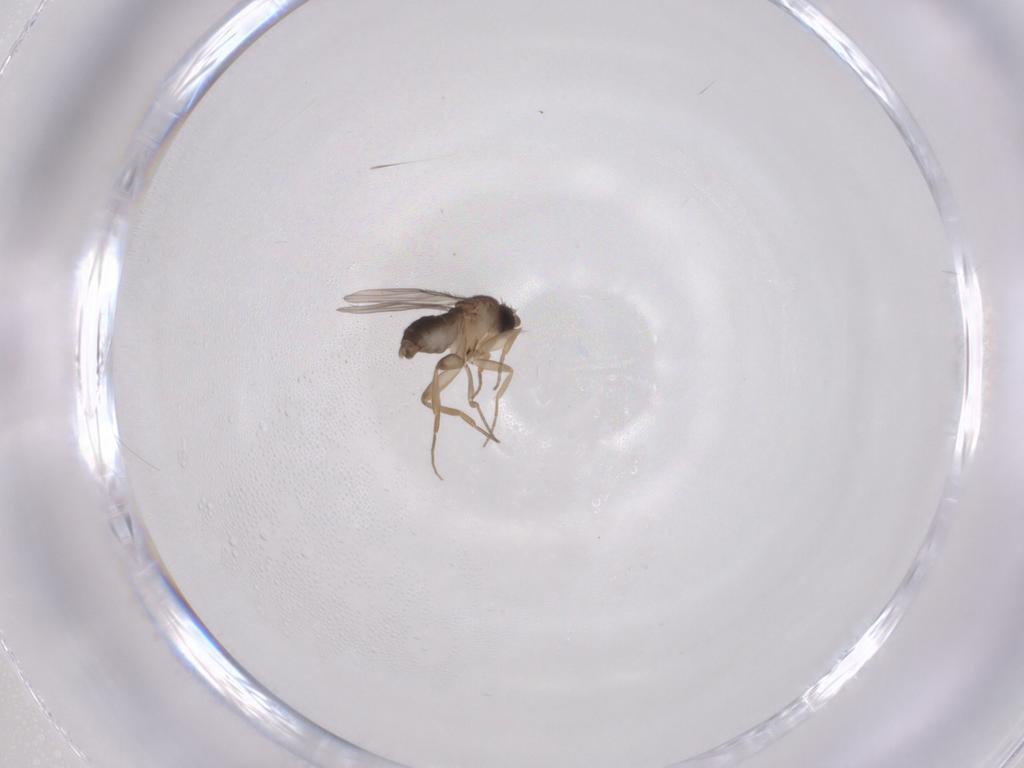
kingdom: Animalia
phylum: Arthropoda
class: Insecta
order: Diptera
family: Phoridae
